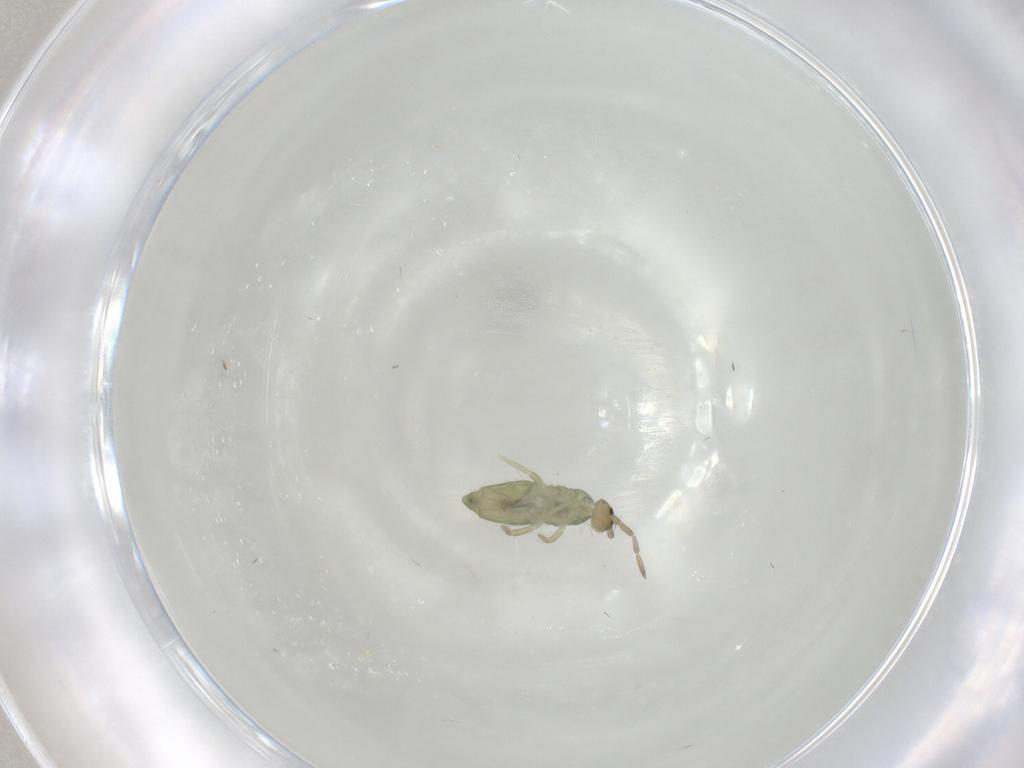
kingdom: Animalia
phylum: Arthropoda
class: Collembola
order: Entomobryomorpha
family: Entomobryidae
